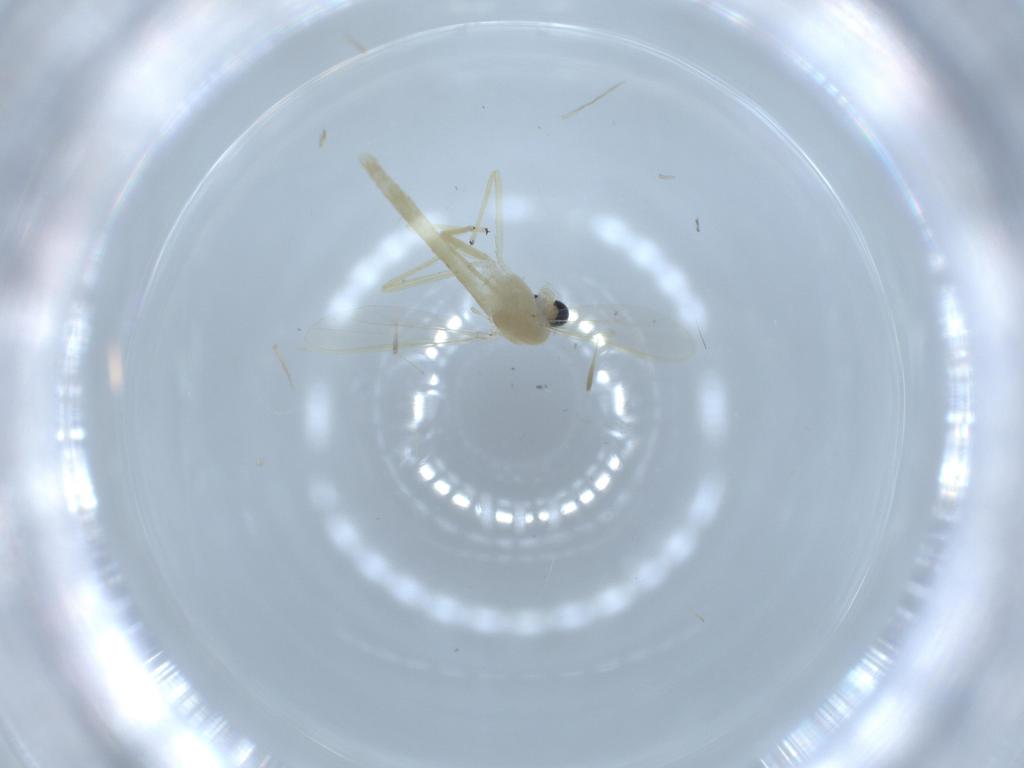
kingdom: Animalia
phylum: Arthropoda
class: Insecta
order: Diptera
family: Chironomidae
